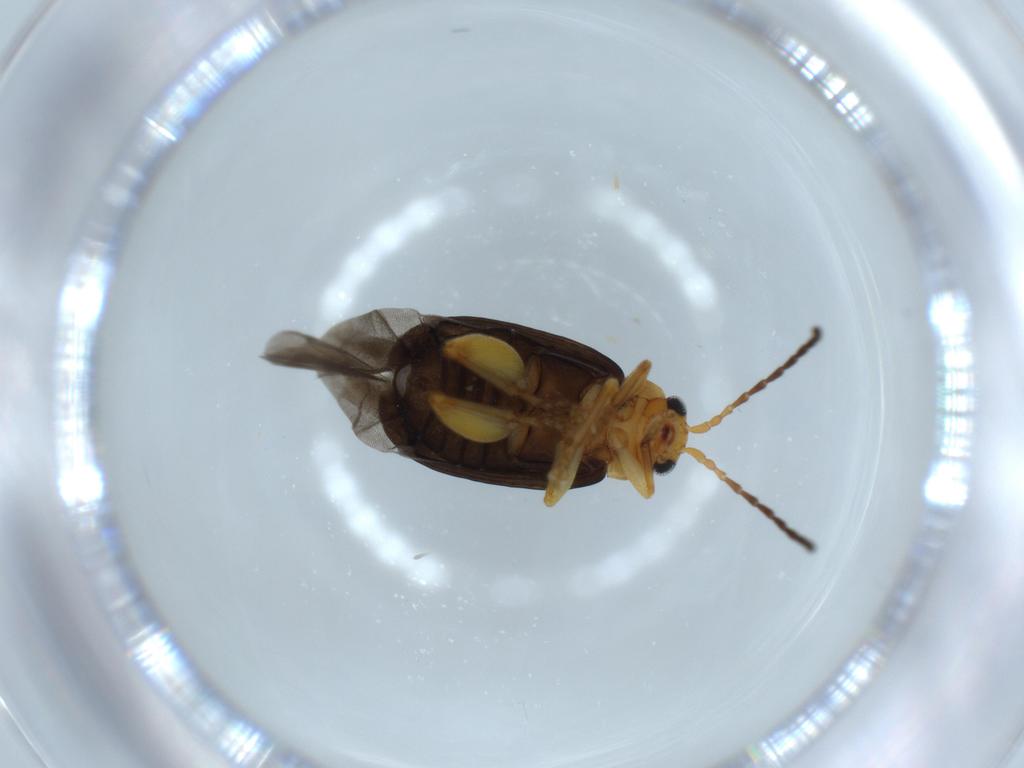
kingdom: Animalia
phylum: Arthropoda
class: Insecta
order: Coleoptera
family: Chrysomelidae
